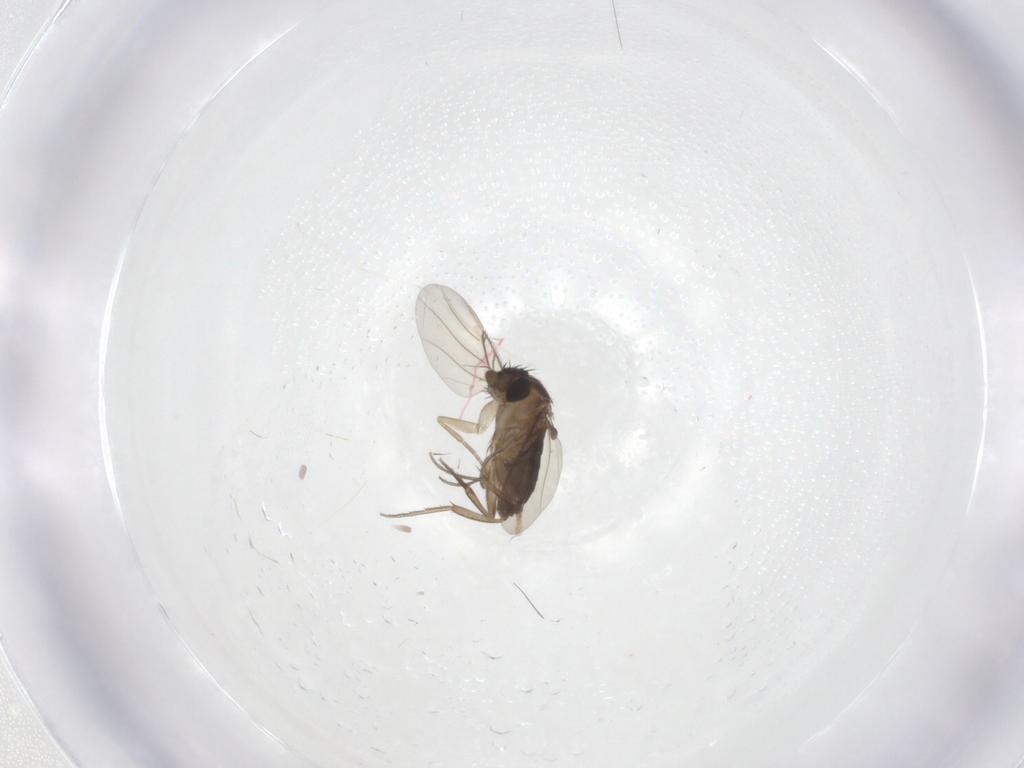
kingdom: Animalia
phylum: Arthropoda
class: Insecta
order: Diptera
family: Phoridae
